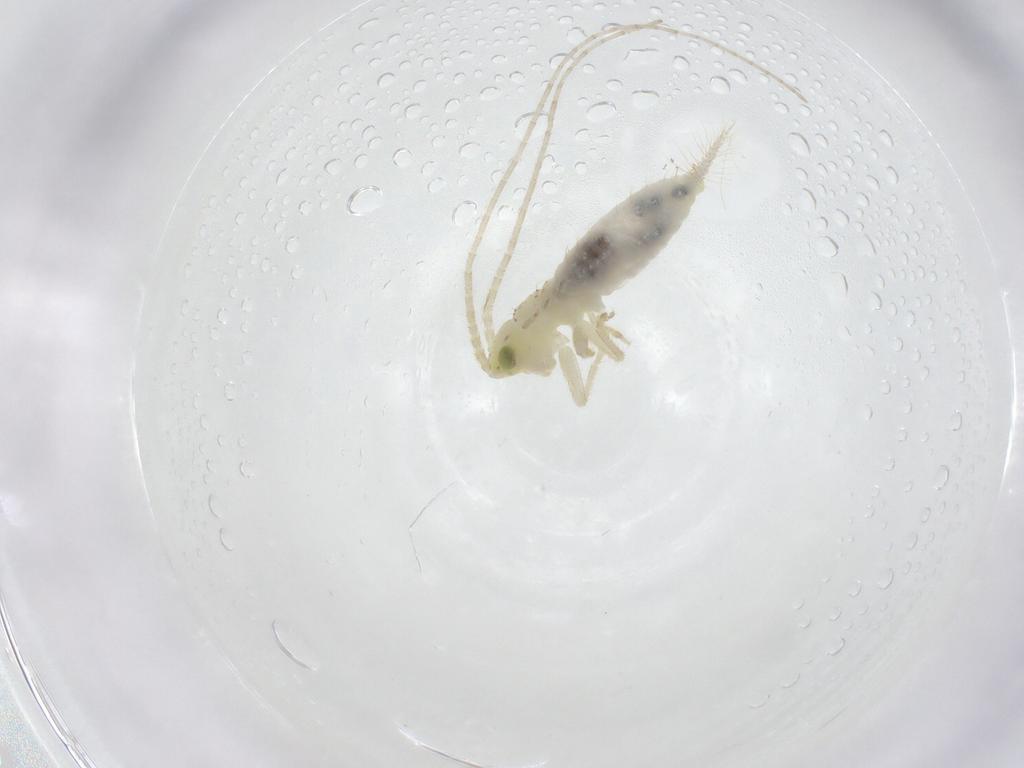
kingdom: Animalia
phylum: Arthropoda
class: Insecta
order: Orthoptera
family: Trigonidiidae
